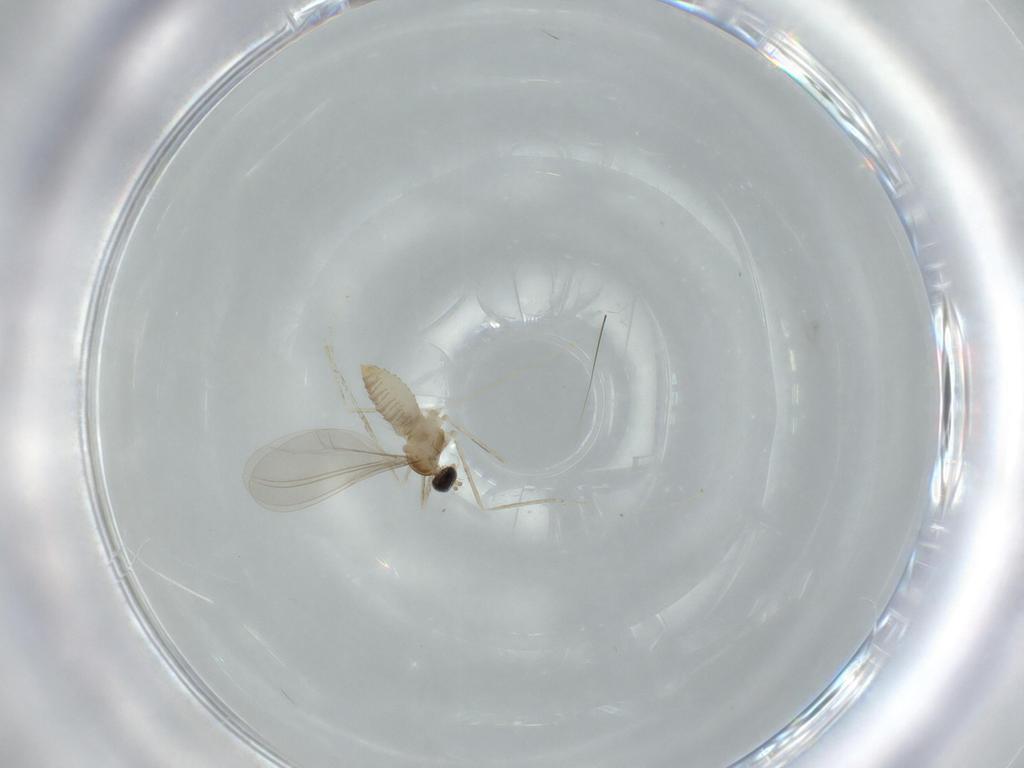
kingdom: Animalia
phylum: Arthropoda
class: Insecta
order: Diptera
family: Cecidomyiidae
